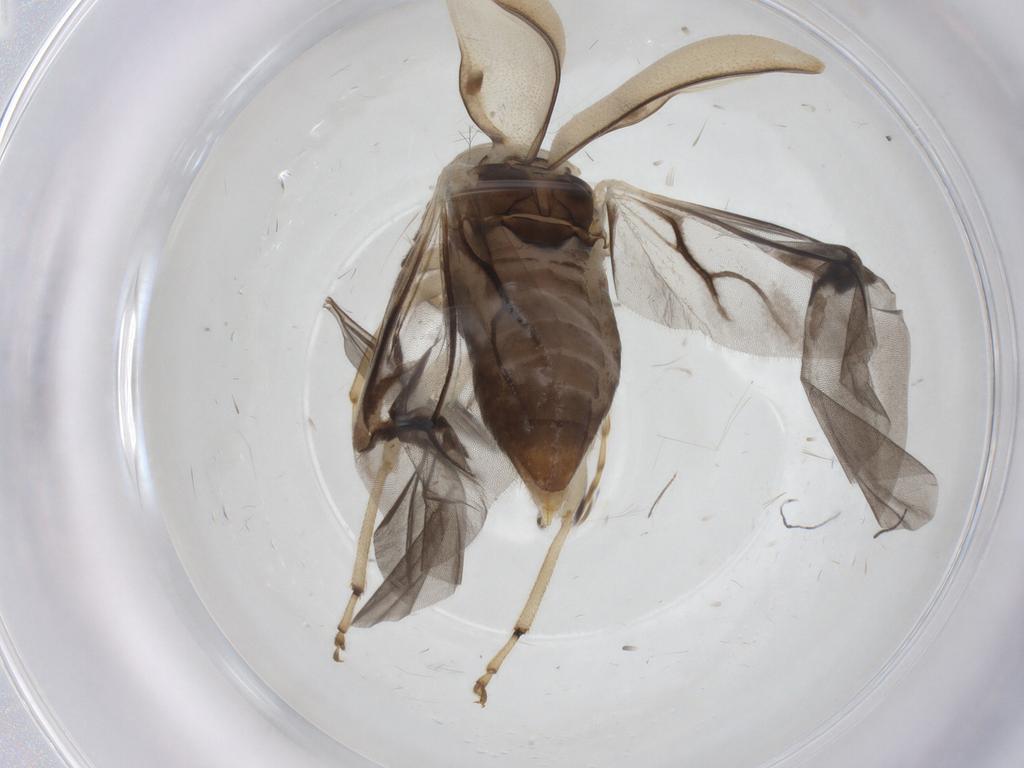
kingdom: Animalia
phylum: Arthropoda
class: Insecta
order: Coleoptera
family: Chrysomelidae
